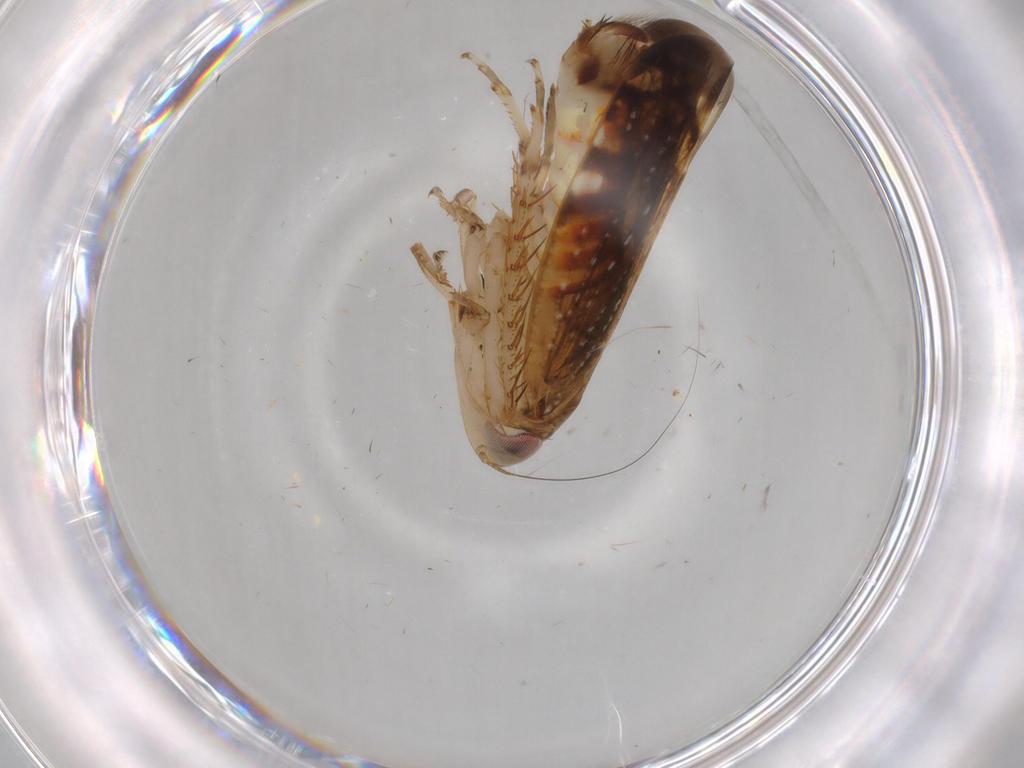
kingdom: Animalia
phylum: Arthropoda
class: Insecta
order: Hemiptera
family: Cicadellidae
